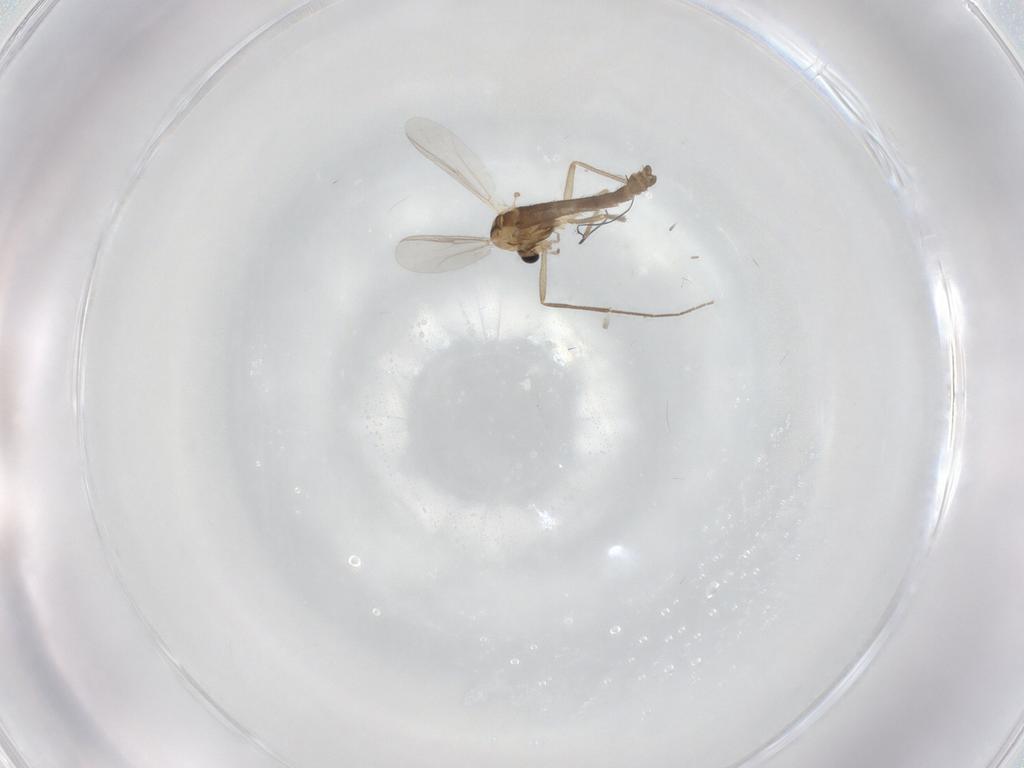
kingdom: Animalia
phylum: Arthropoda
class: Insecta
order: Diptera
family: Chironomidae
